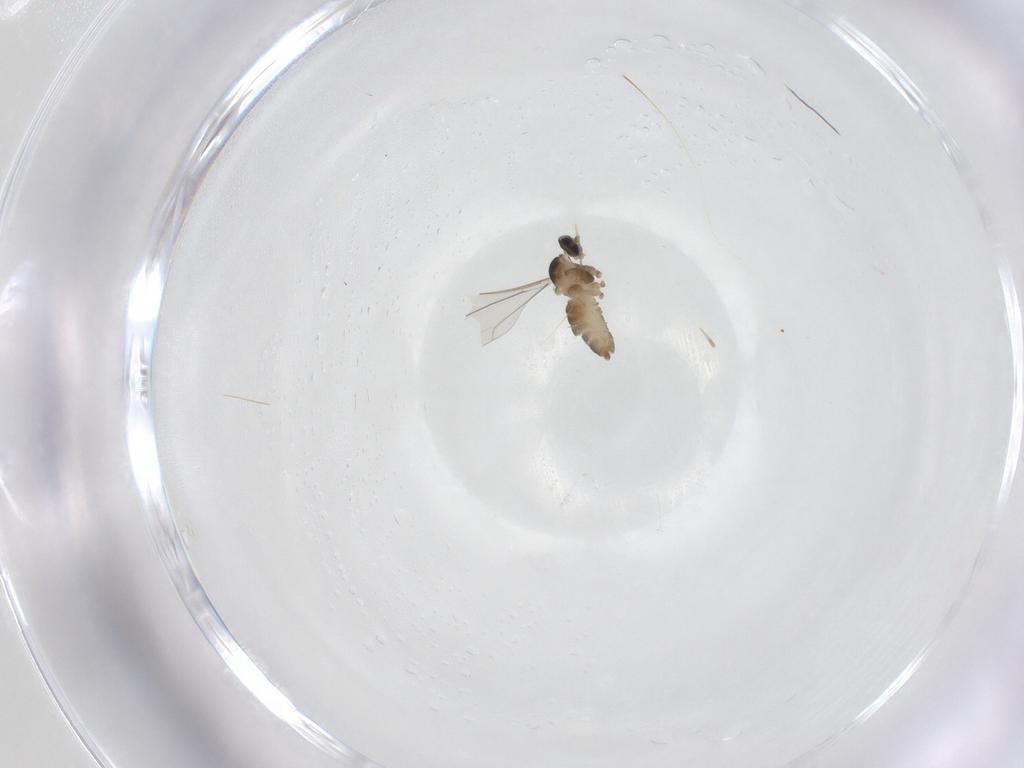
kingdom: Animalia
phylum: Arthropoda
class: Insecta
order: Diptera
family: Cecidomyiidae
